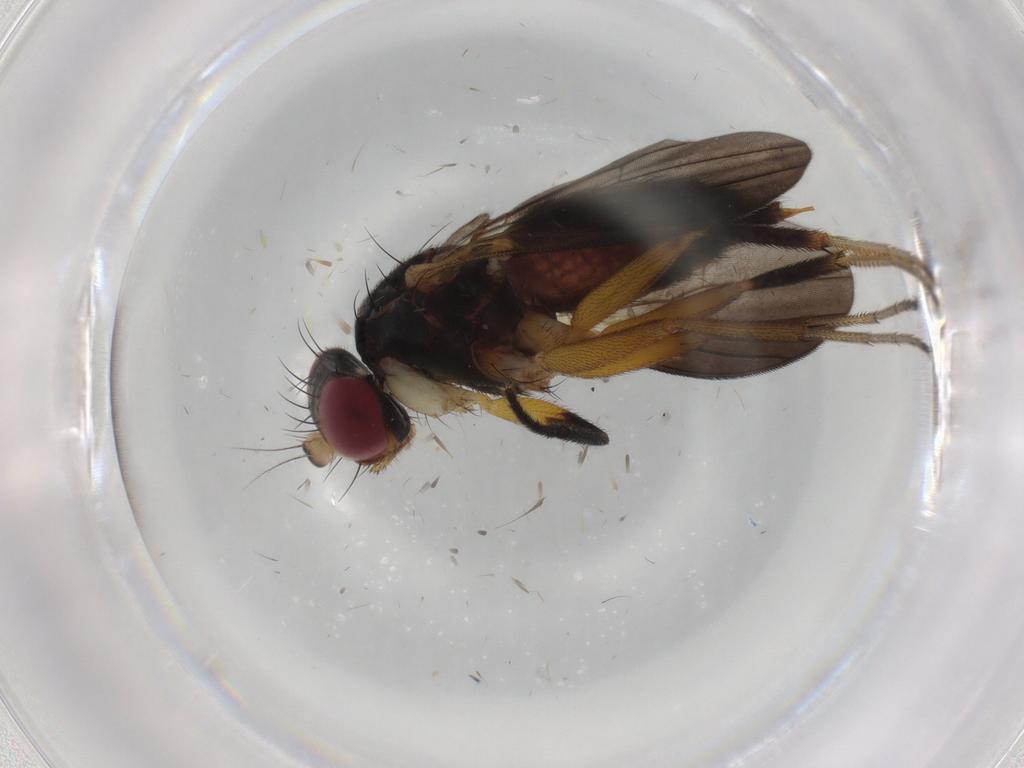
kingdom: Animalia
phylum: Arthropoda
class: Insecta
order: Diptera
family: Clusiidae
